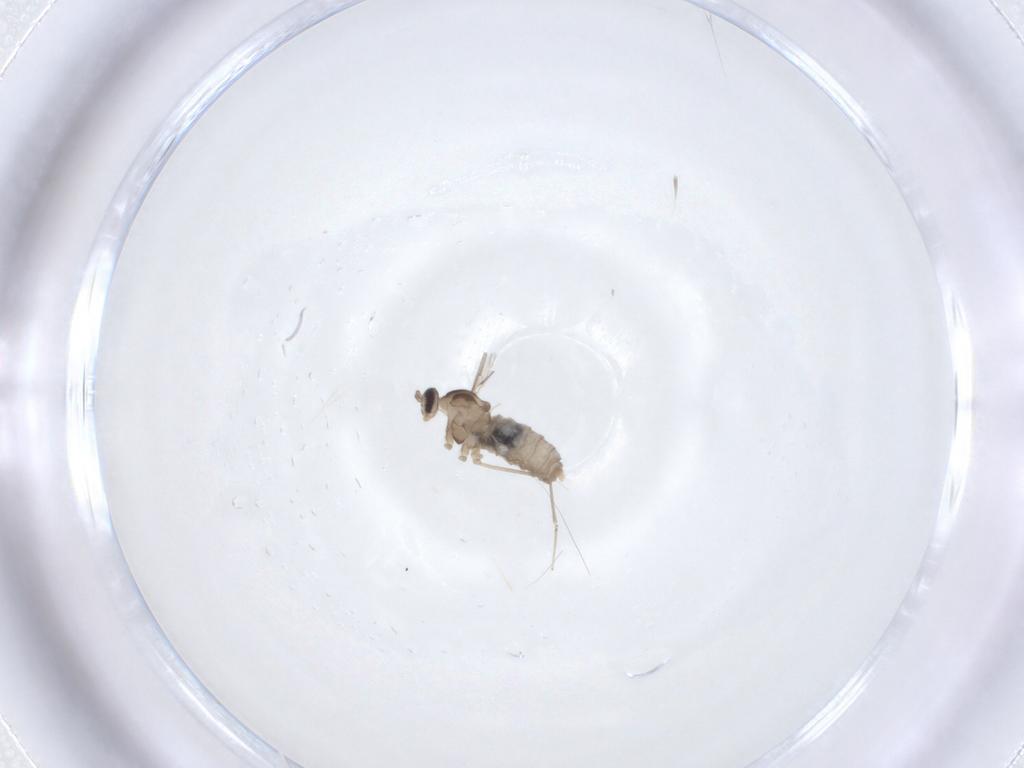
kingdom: Animalia
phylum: Arthropoda
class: Insecta
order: Diptera
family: Cecidomyiidae
